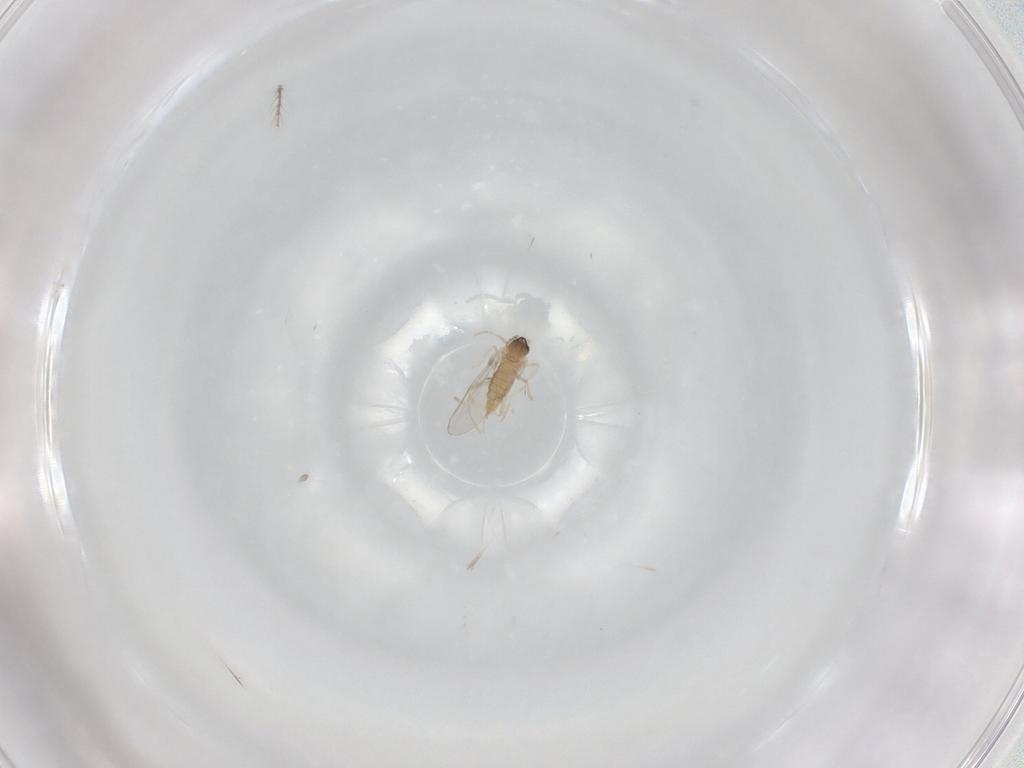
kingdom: Animalia
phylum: Arthropoda
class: Insecta
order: Diptera
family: Cecidomyiidae
